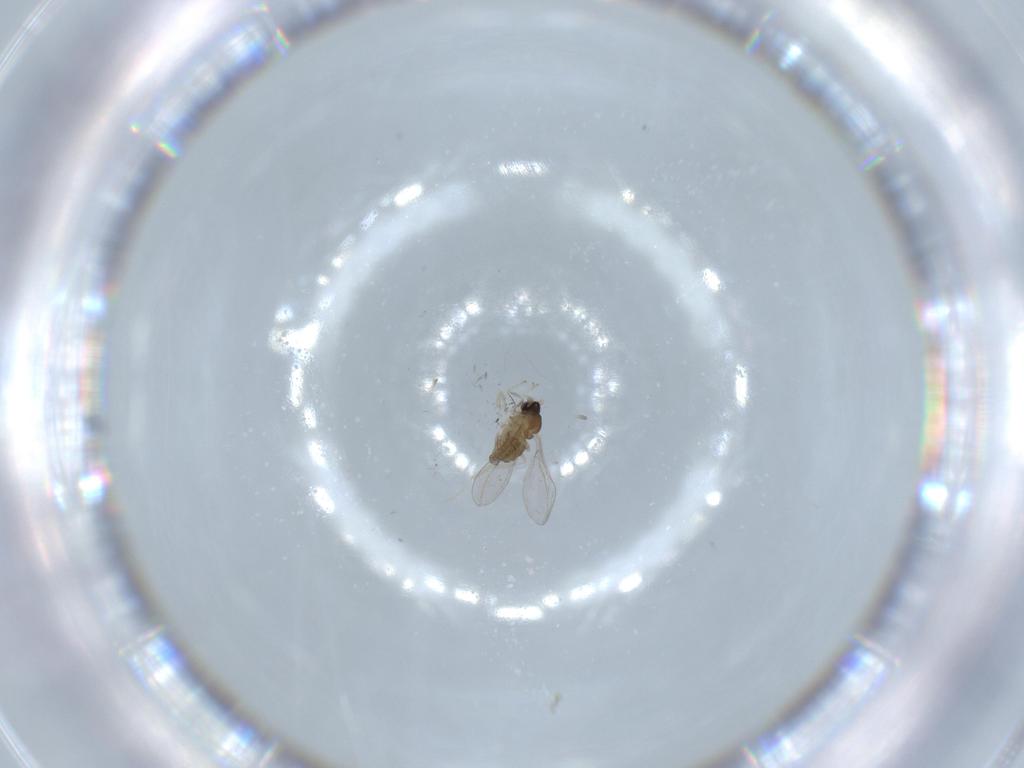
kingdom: Animalia
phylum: Arthropoda
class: Insecta
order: Diptera
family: Cecidomyiidae
